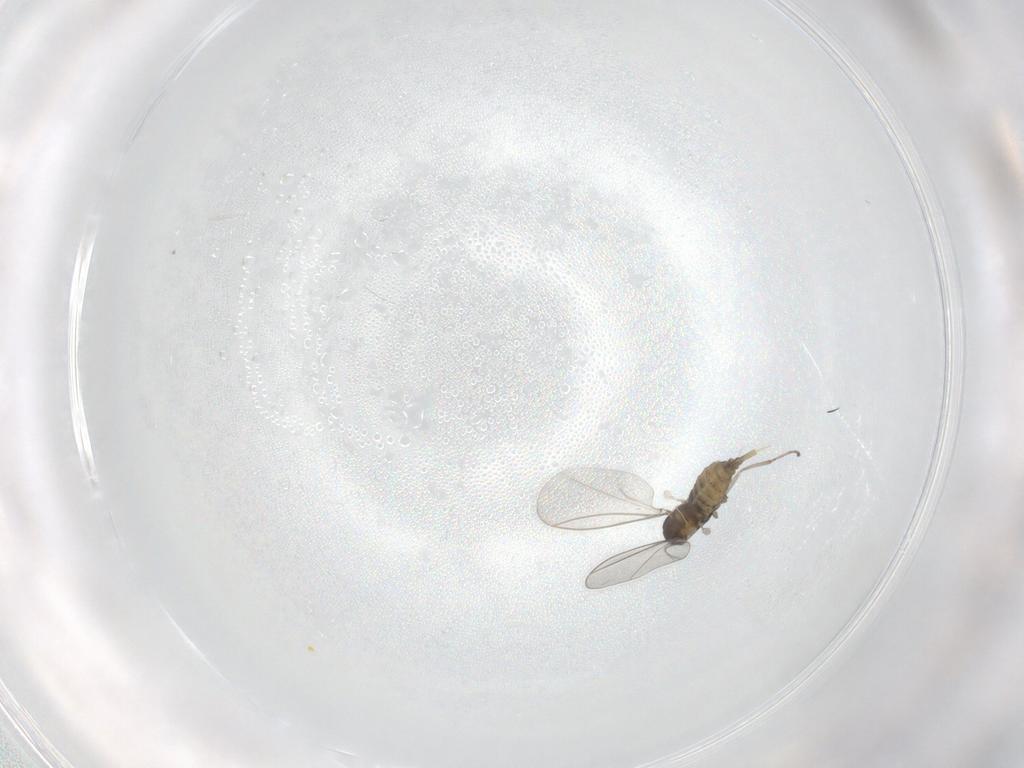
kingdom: Animalia
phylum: Arthropoda
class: Insecta
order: Diptera
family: Cecidomyiidae
